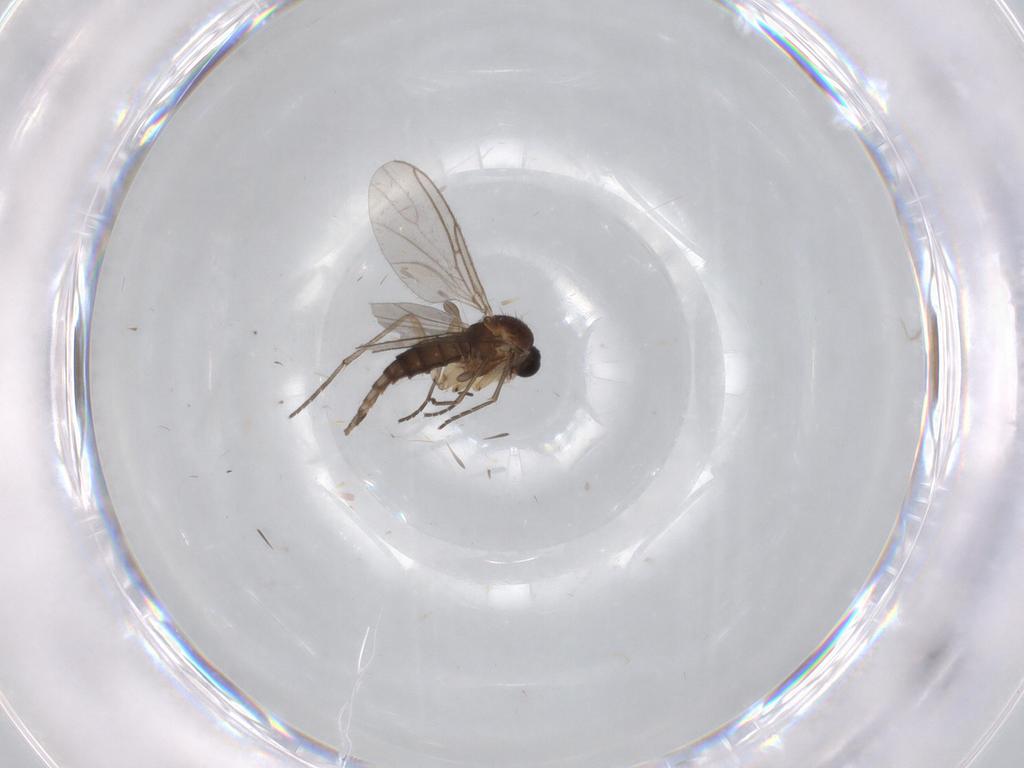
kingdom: Animalia
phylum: Arthropoda
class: Insecta
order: Diptera
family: Sciaridae
